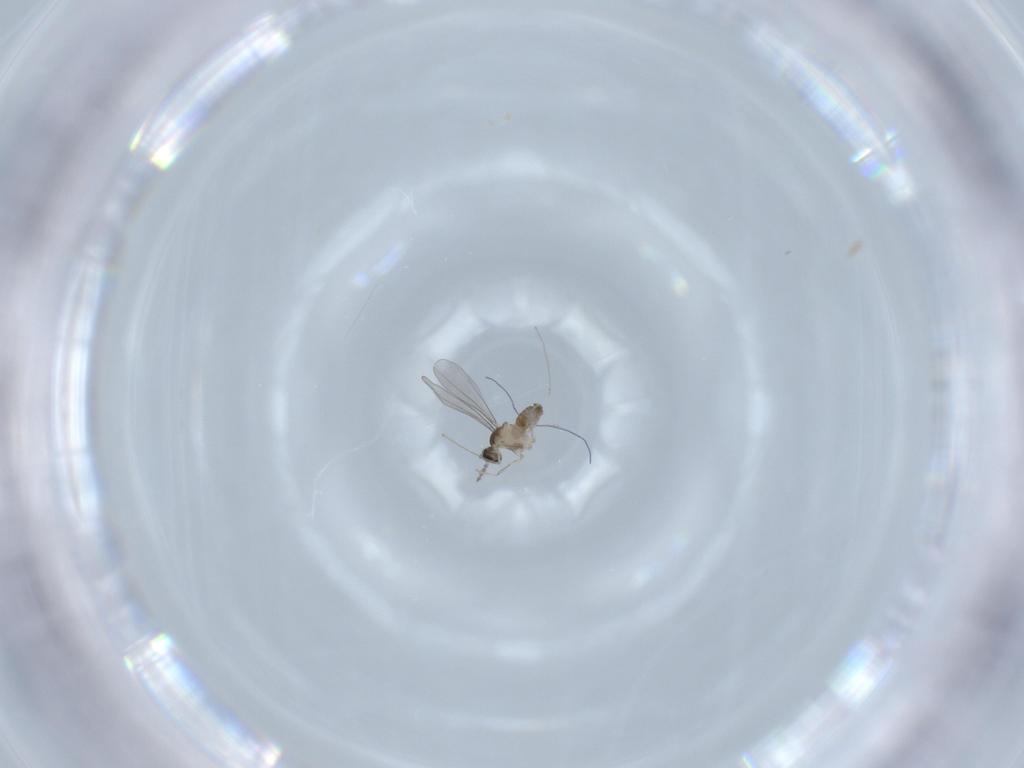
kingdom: Animalia
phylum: Arthropoda
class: Insecta
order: Diptera
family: Cecidomyiidae
